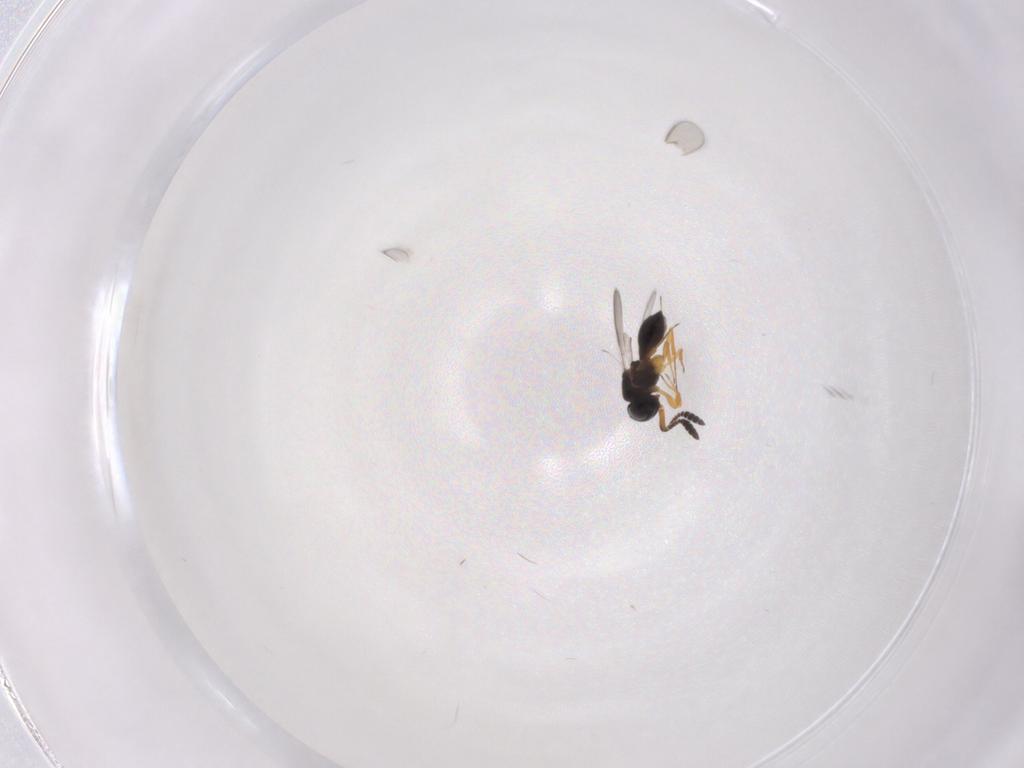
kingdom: Animalia
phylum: Arthropoda
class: Insecta
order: Hymenoptera
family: Scelionidae
